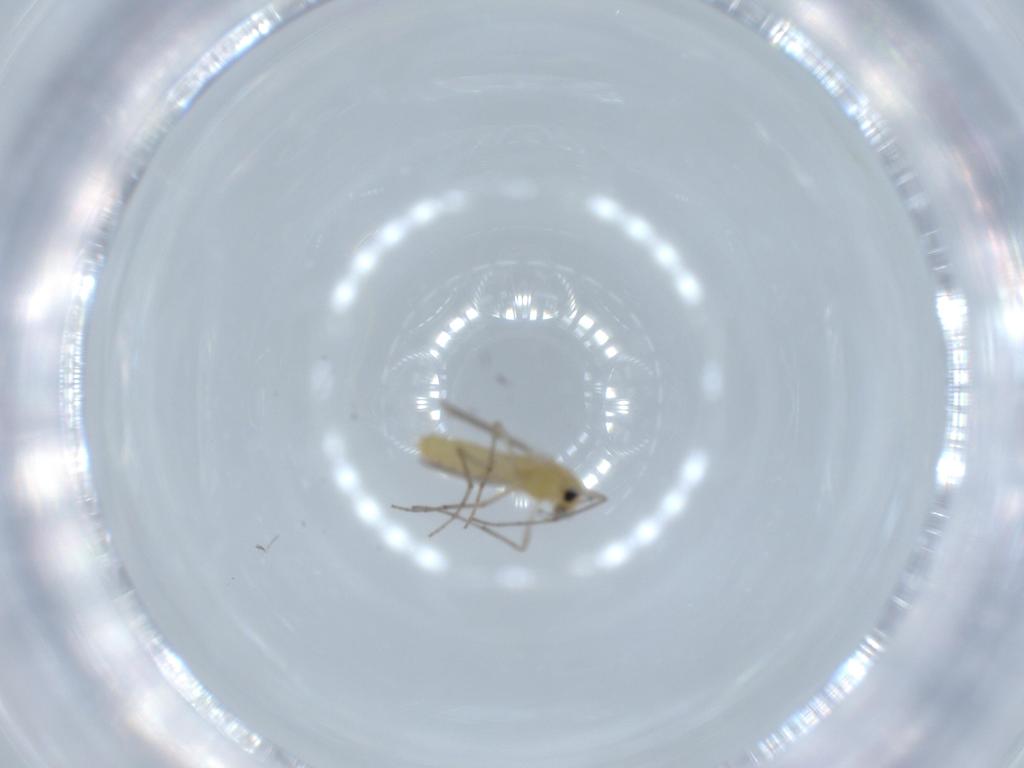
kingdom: Animalia
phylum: Arthropoda
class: Insecta
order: Diptera
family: Chironomidae
